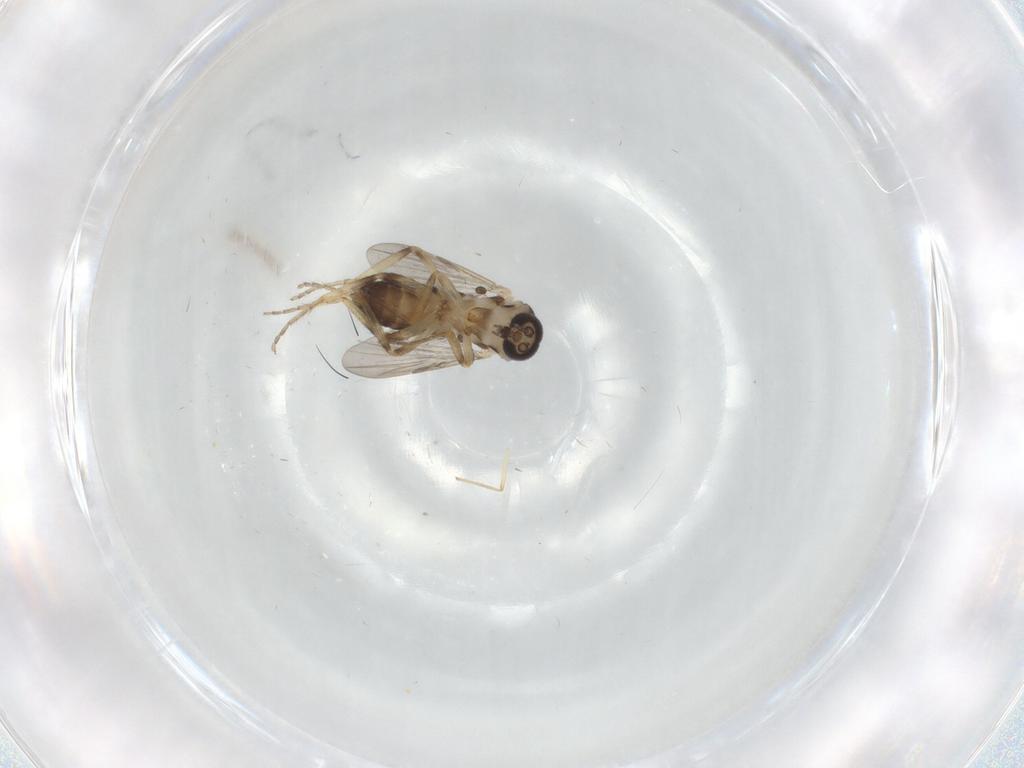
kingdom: Animalia
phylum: Arthropoda
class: Insecta
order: Diptera
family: Ceratopogonidae
